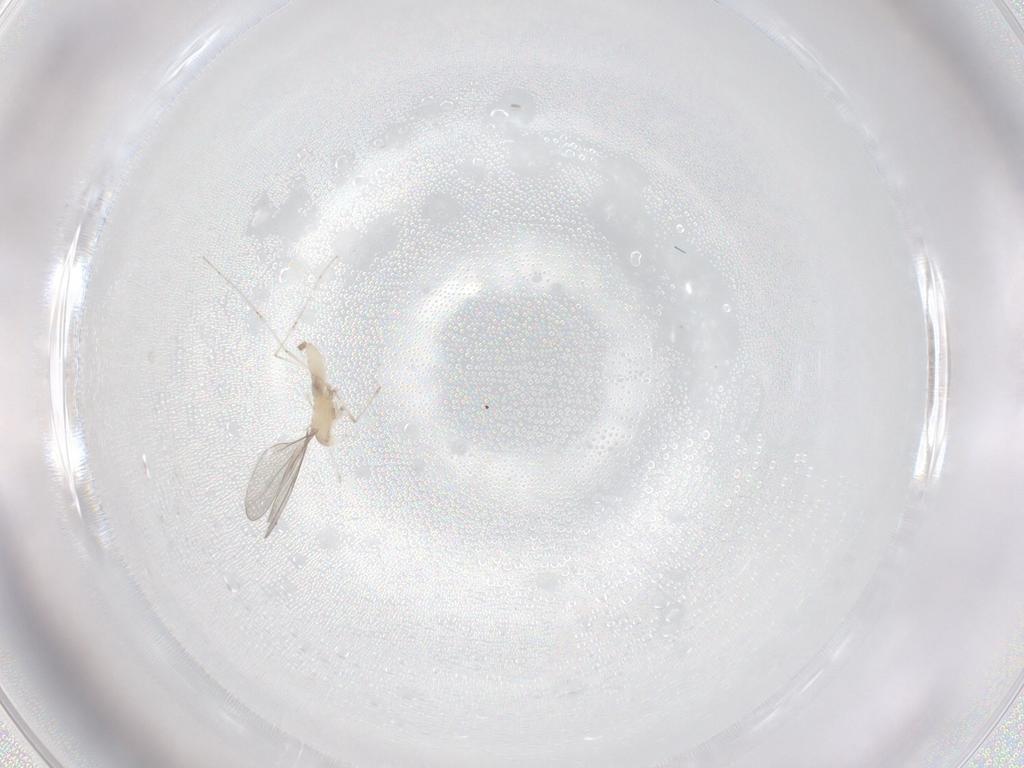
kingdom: Animalia
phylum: Arthropoda
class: Insecta
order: Diptera
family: Cecidomyiidae
